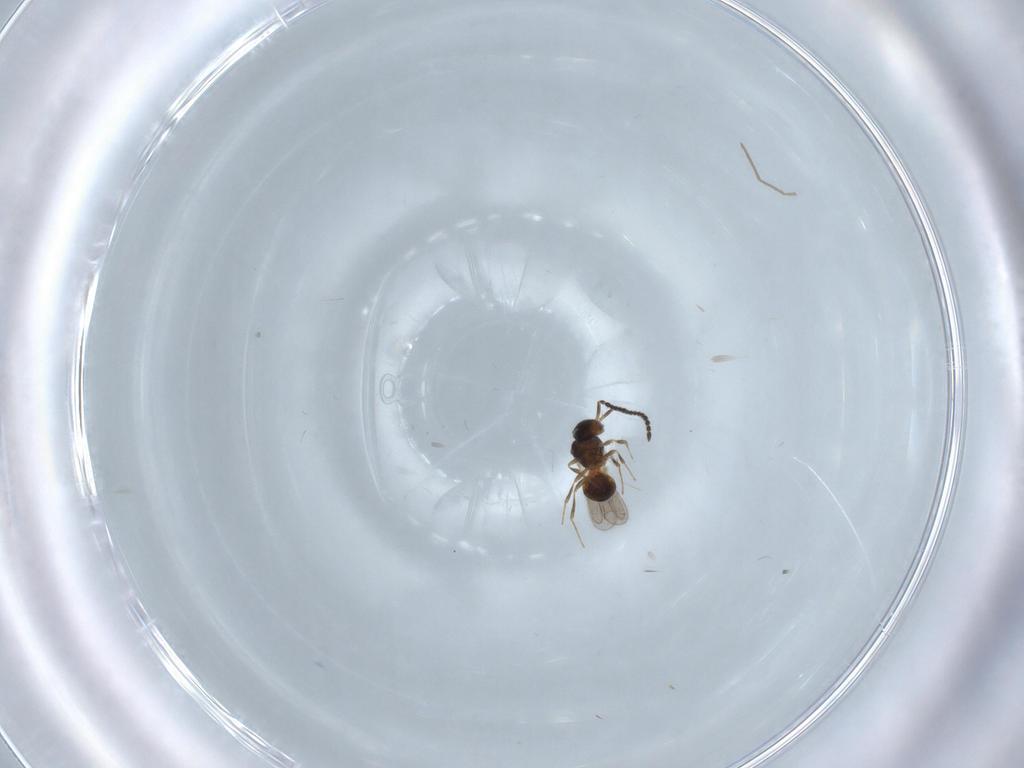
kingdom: Animalia
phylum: Arthropoda
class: Insecta
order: Hymenoptera
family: Scelionidae
